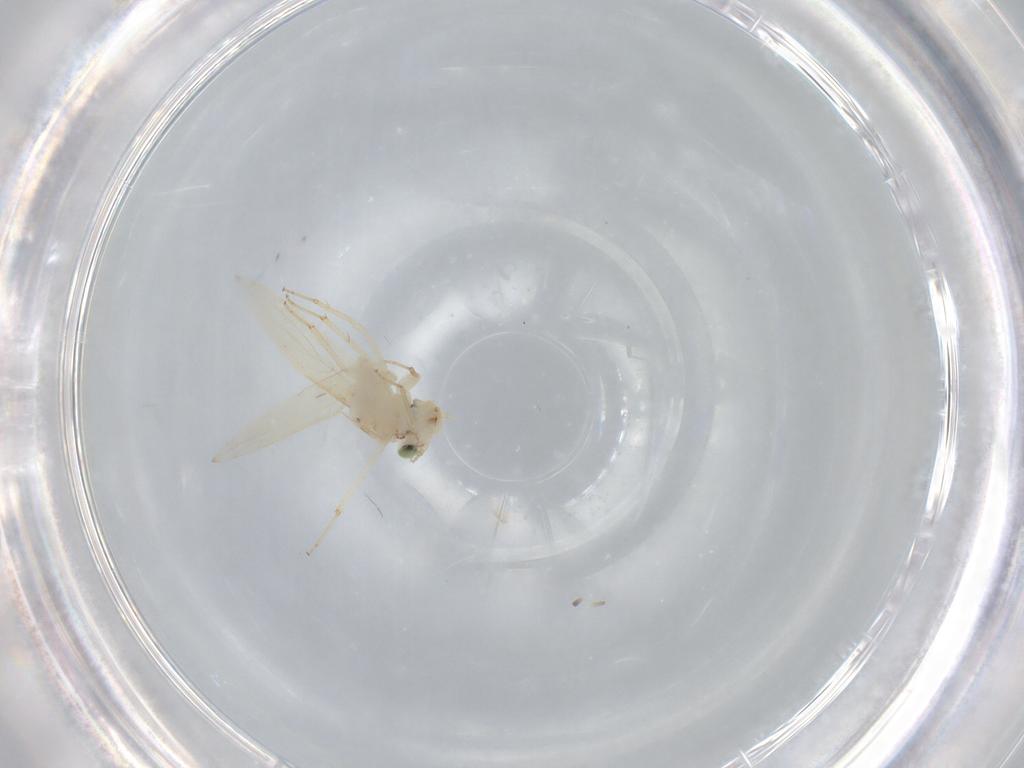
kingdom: Animalia
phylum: Arthropoda
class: Insecta
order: Psocodea
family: Lepidopsocidae
